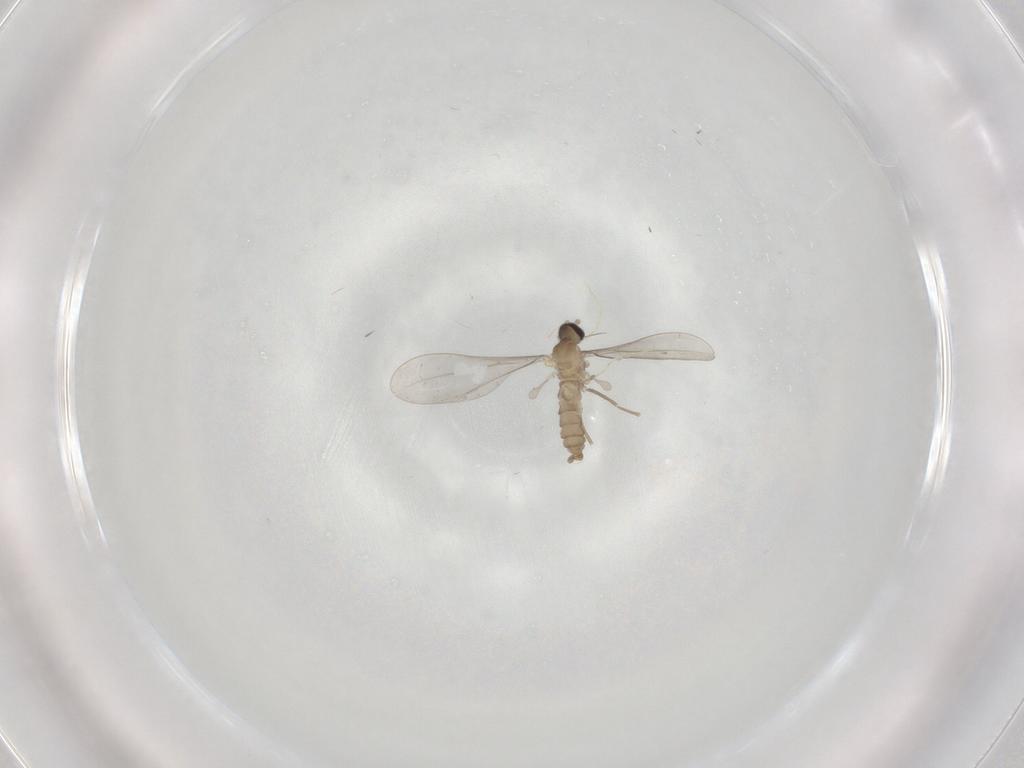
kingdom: Animalia
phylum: Arthropoda
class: Insecta
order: Diptera
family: Cecidomyiidae
